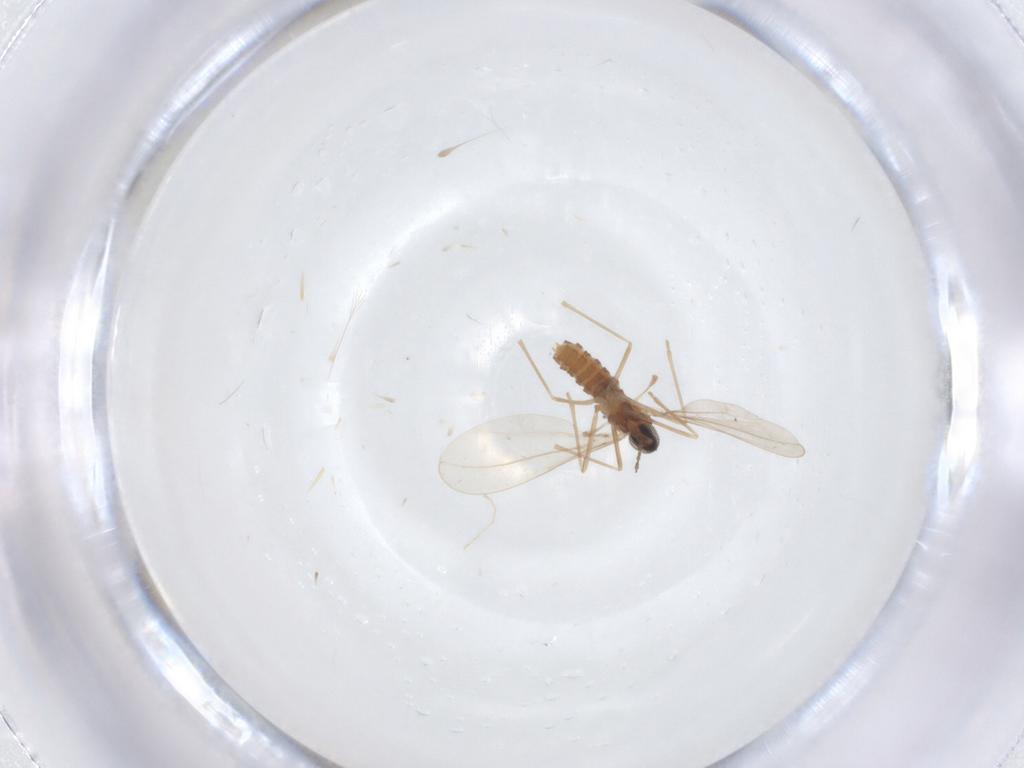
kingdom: Animalia
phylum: Arthropoda
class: Insecta
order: Diptera
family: Cecidomyiidae
